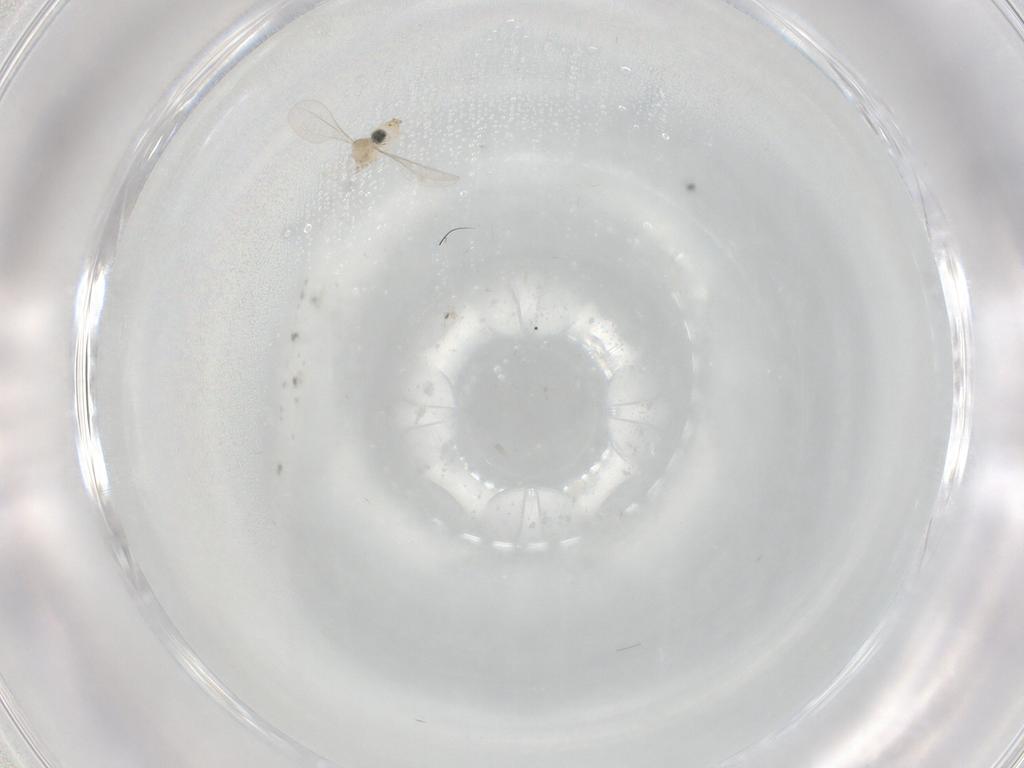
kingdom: Animalia
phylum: Arthropoda
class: Insecta
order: Diptera
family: Cecidomyiidae
